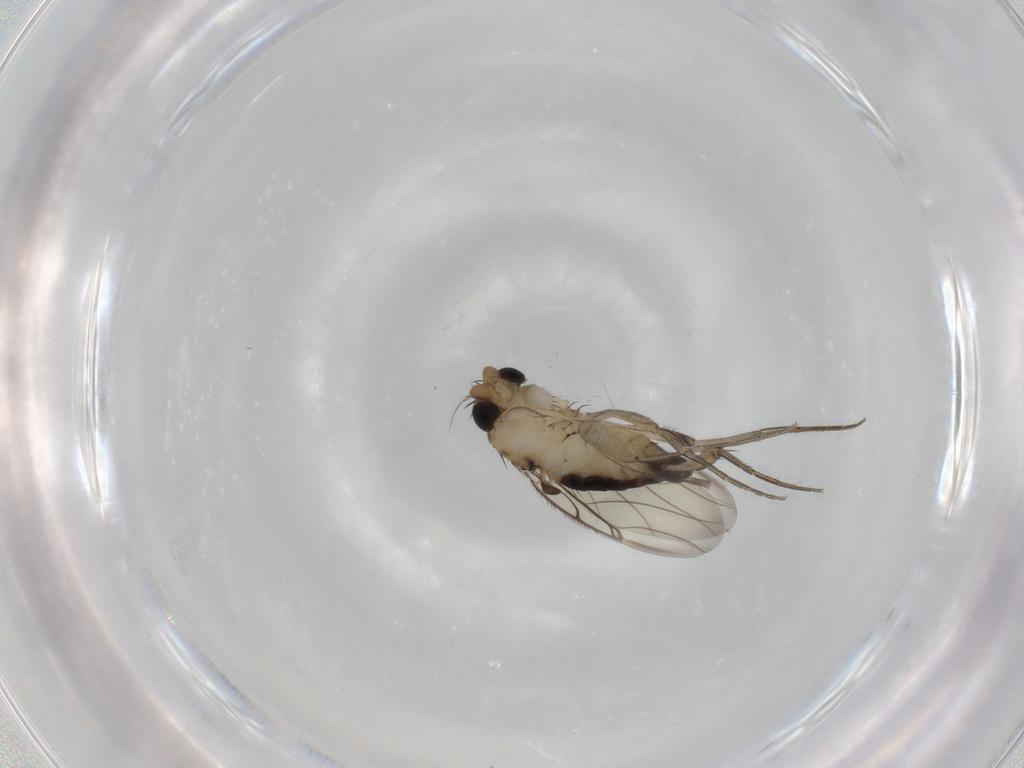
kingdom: Animalia
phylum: Arthropoda
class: Insecta
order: Diptera
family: Phoridae
